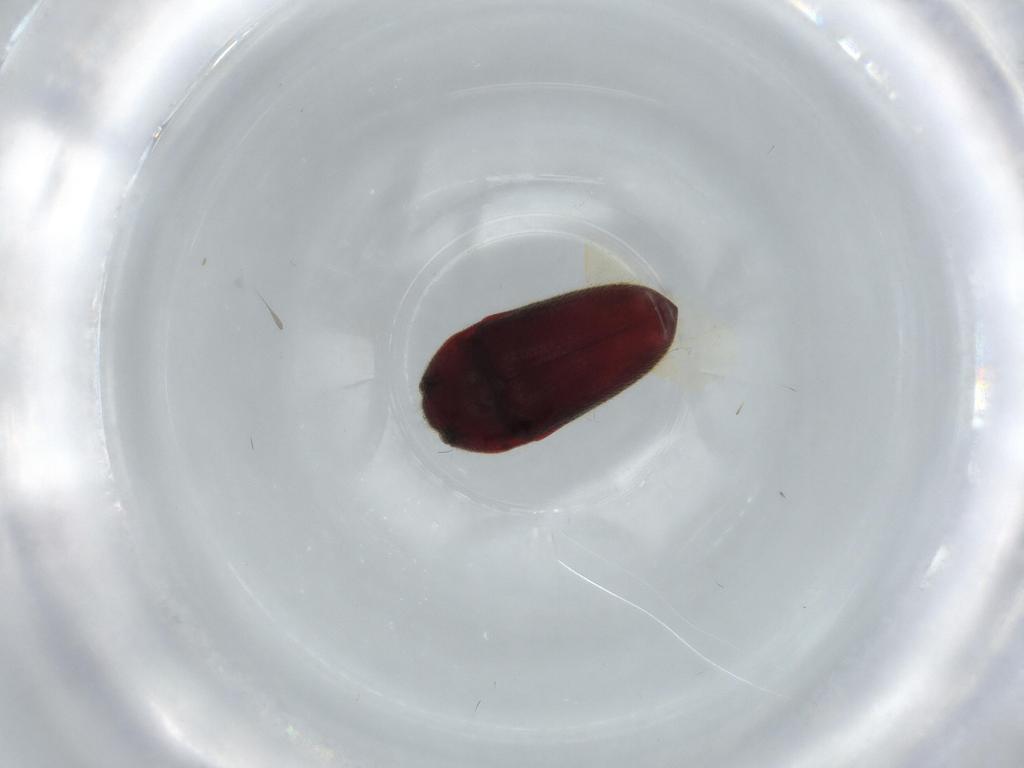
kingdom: Animalia
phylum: Arthropoda
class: Insecta
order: Coleoptera
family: Throscidae
